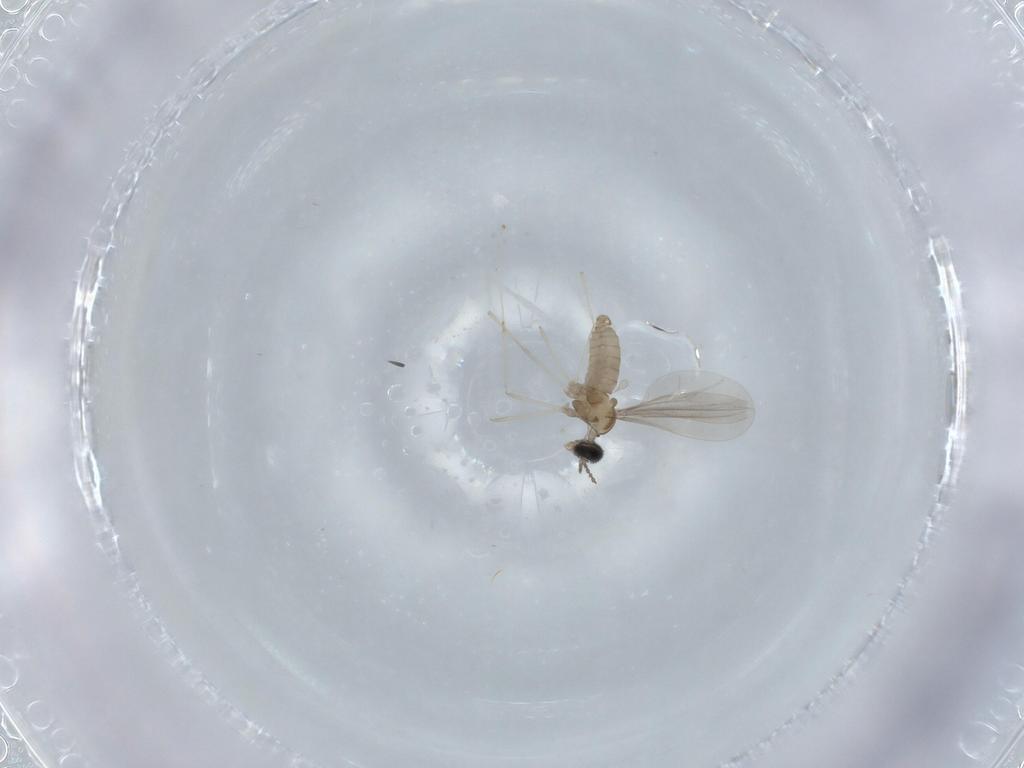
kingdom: Animalia
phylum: Arthropoda
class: Insecta
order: Diptera
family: Cecidomyiidae
